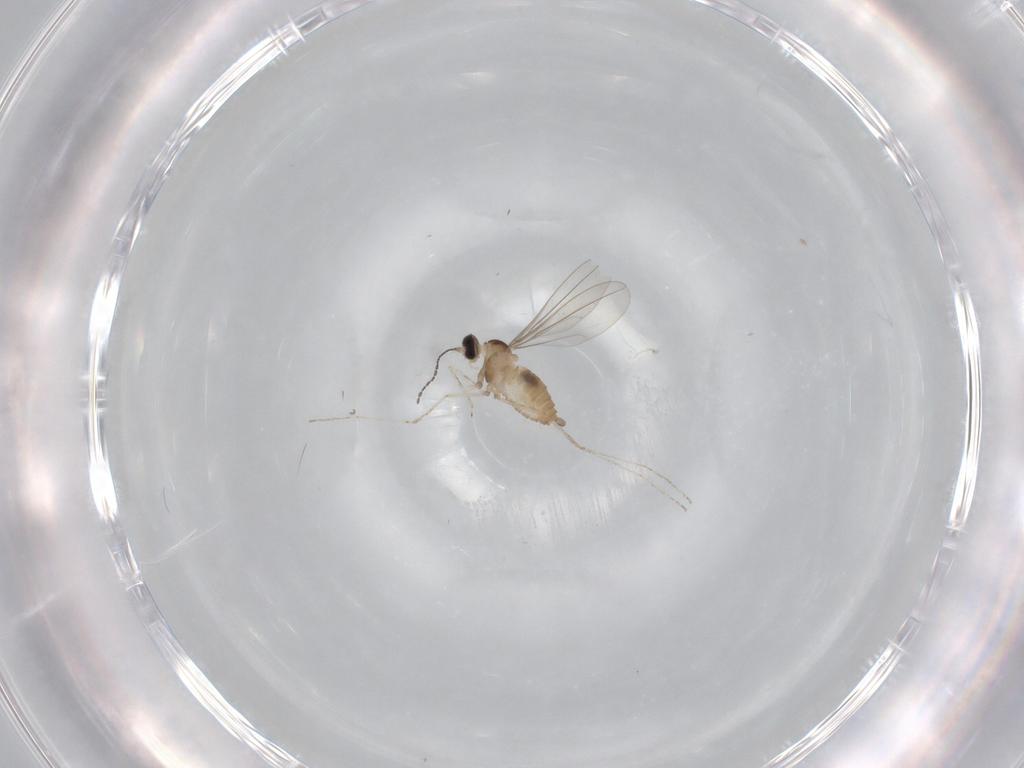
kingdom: Animalia
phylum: Arthropoda
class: Insecta
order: Diptera
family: Cecidomyiidae
